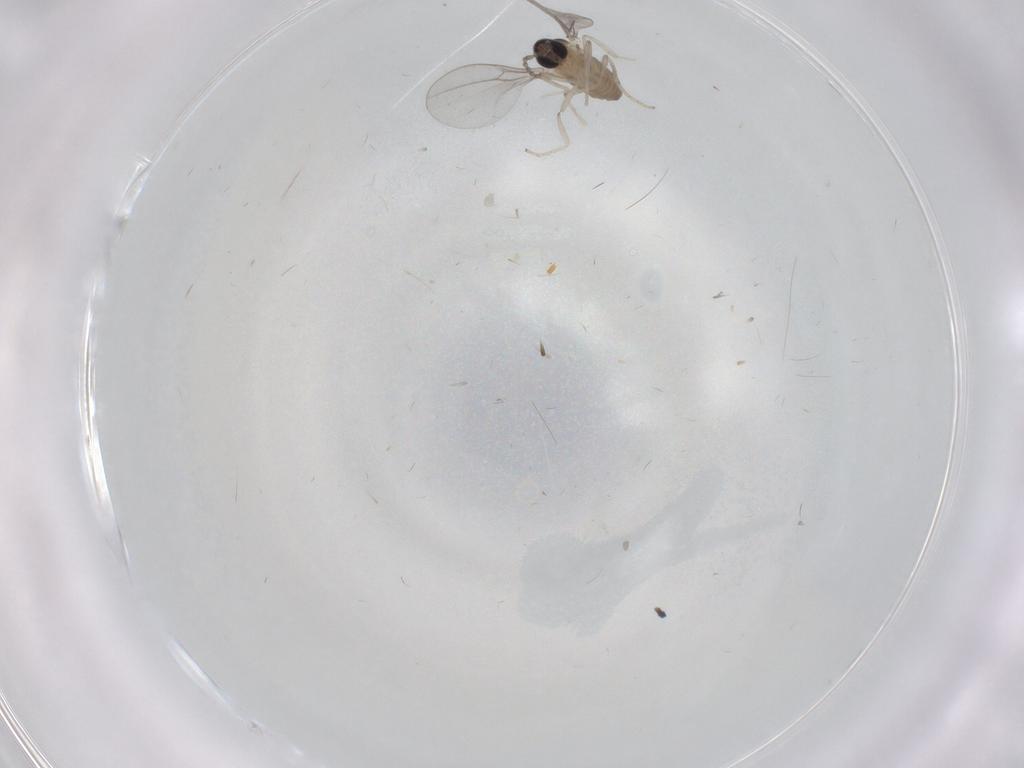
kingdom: Animalia
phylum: Arthropoda
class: Insecta
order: Diptera
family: Cecidomyiidae
